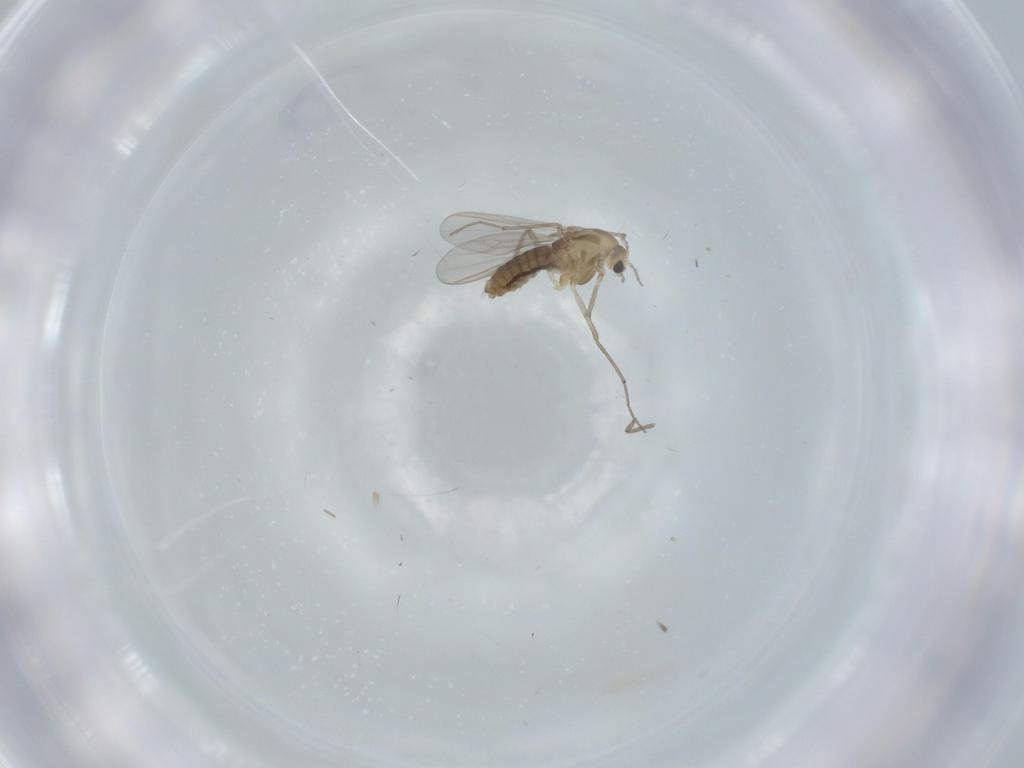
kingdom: Animalia
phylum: Arthropoda
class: Insecta
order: Diptera
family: Chironomidae
